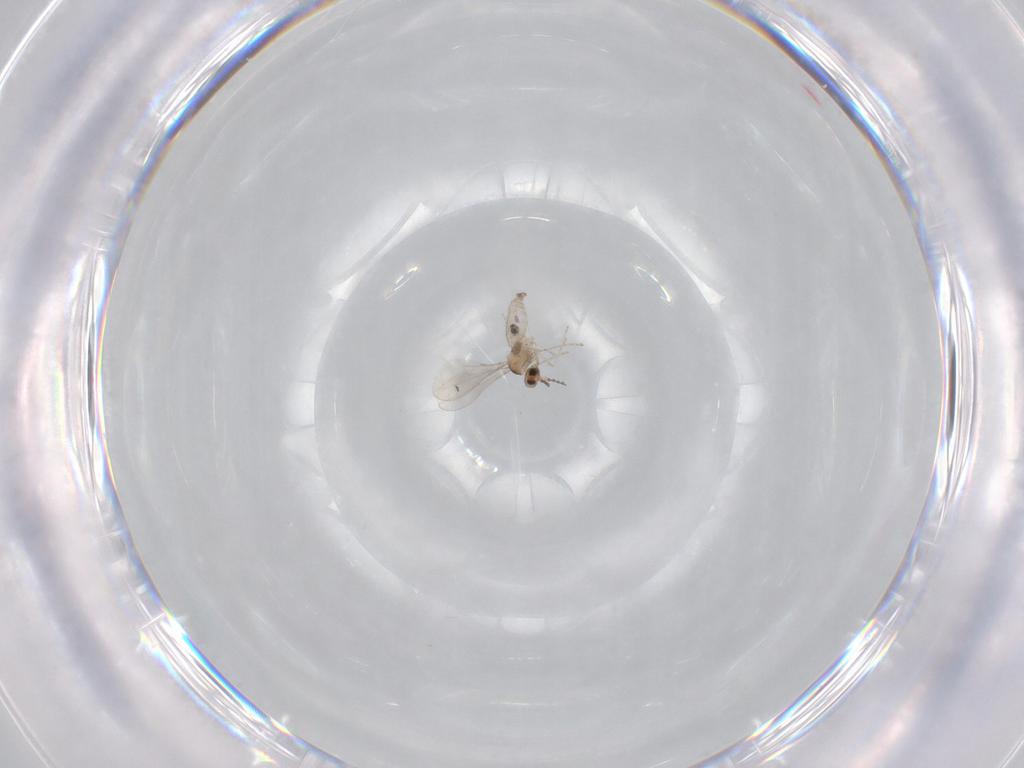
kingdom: Animalia
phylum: Arthropoda
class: Insecta
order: Diptera
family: Cecidomyiidae
